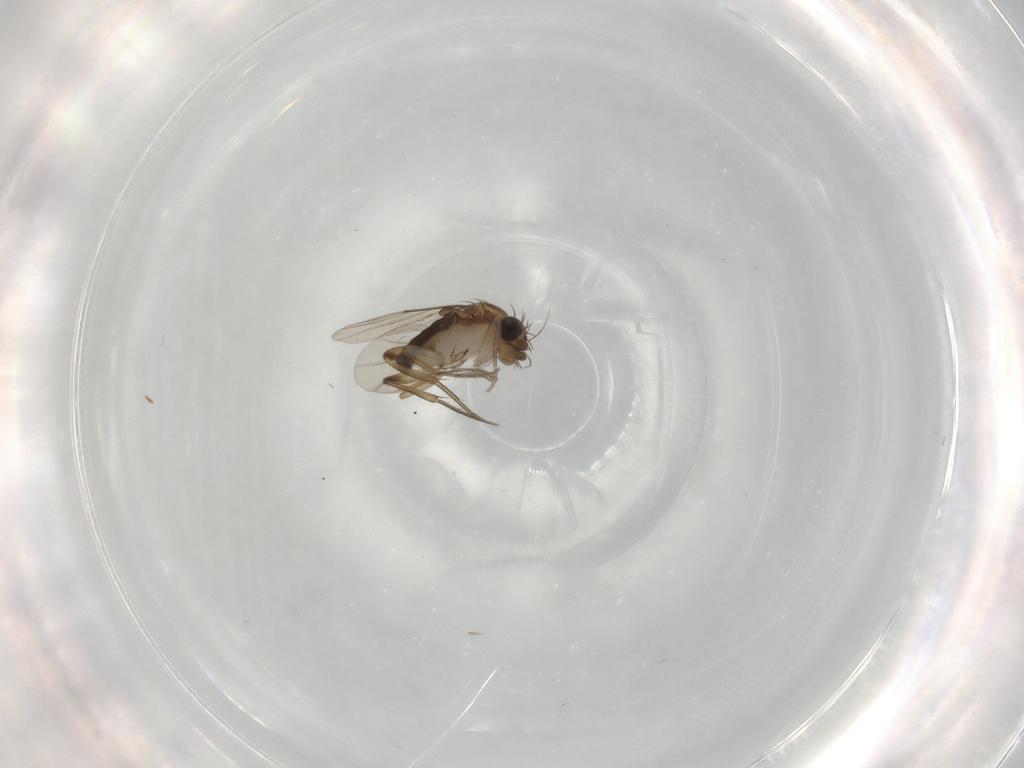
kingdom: Animalia
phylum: Arthropoda
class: Insecta
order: Diptera
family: Phoridae
